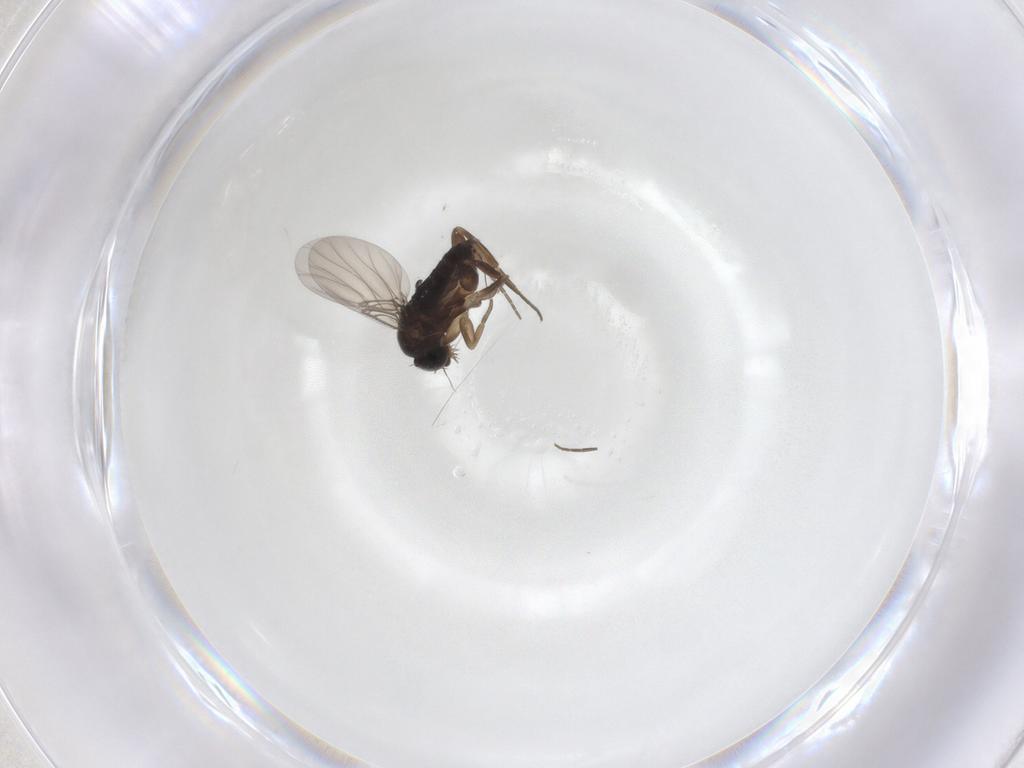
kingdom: Animalia
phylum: Arthropoda
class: Insecta
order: Diptera
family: Phoridae
